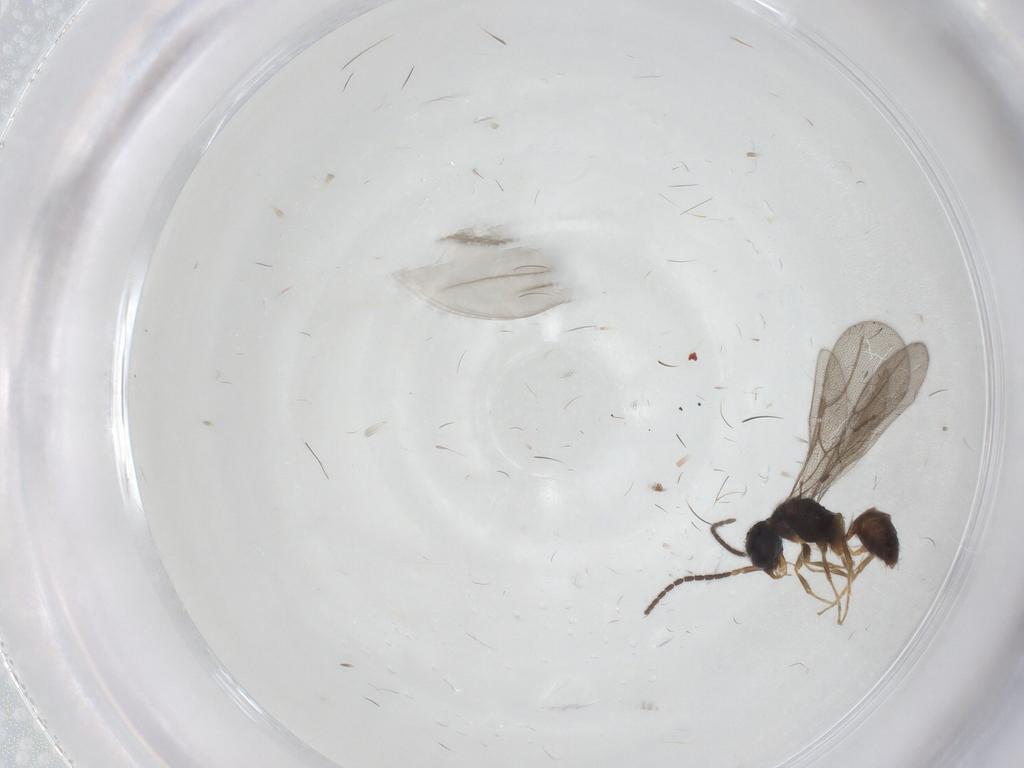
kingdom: Animalia
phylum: Arthropoda
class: Insecta
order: Hymenoptera
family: Bethylidae
